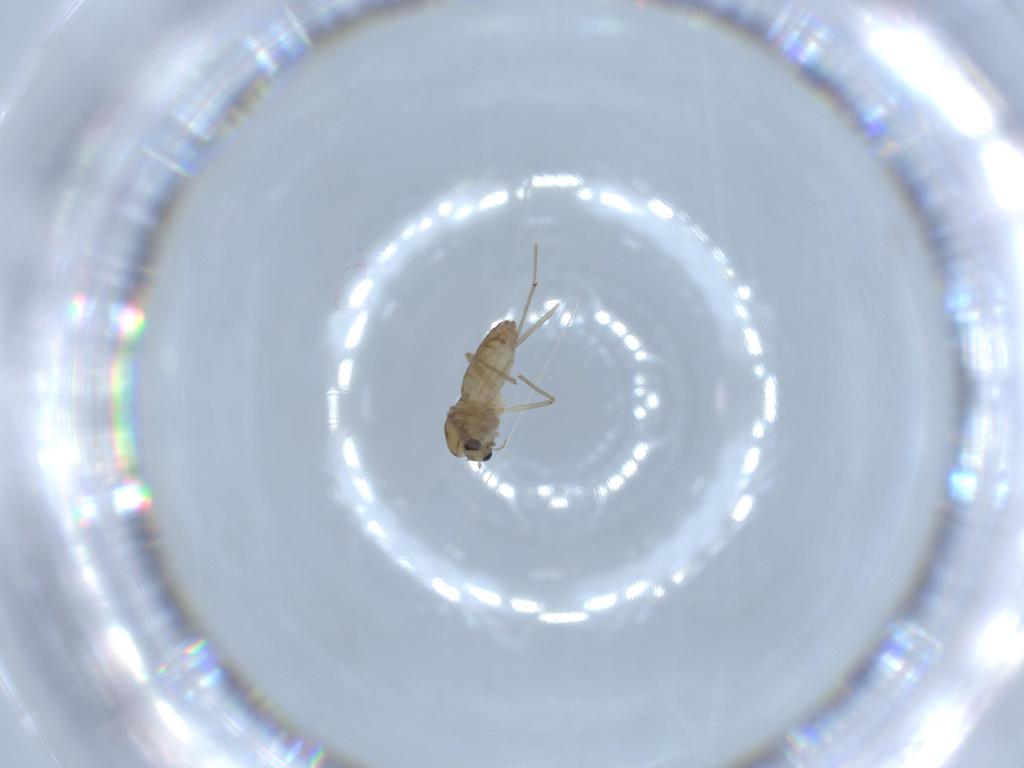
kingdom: Animalia
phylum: Arthropoda
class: Insecta
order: Diptera
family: Chironomidae
